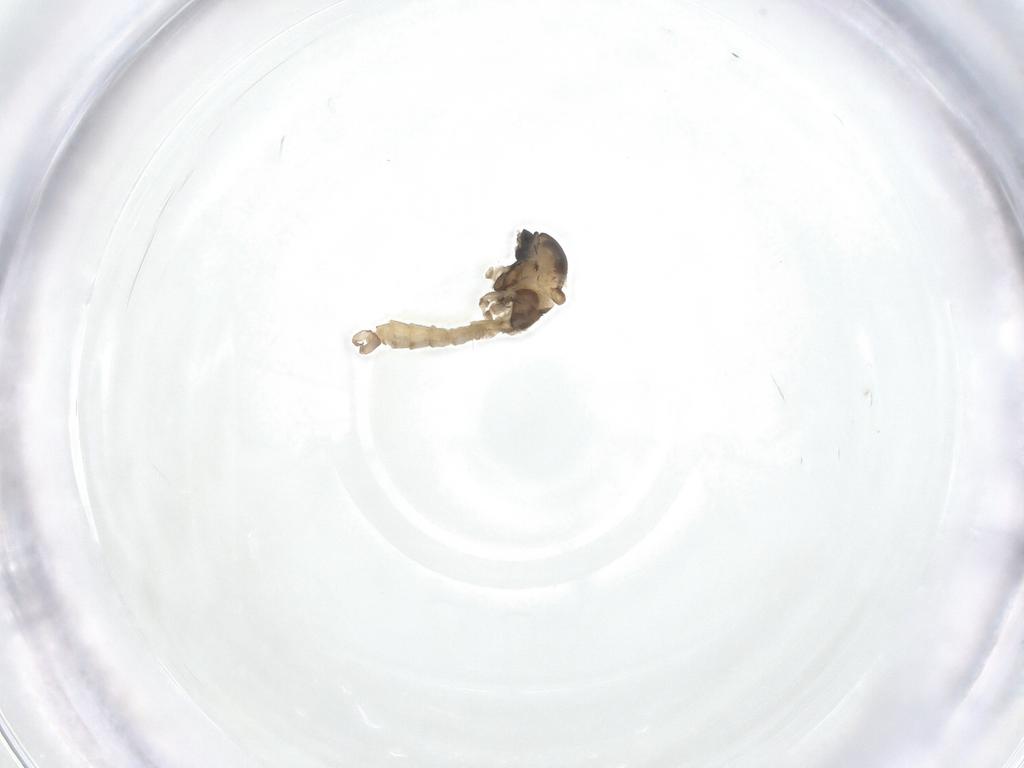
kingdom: Animalia
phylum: Arthropoda
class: Insecta
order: Diptera
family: Cecidomyiidae
